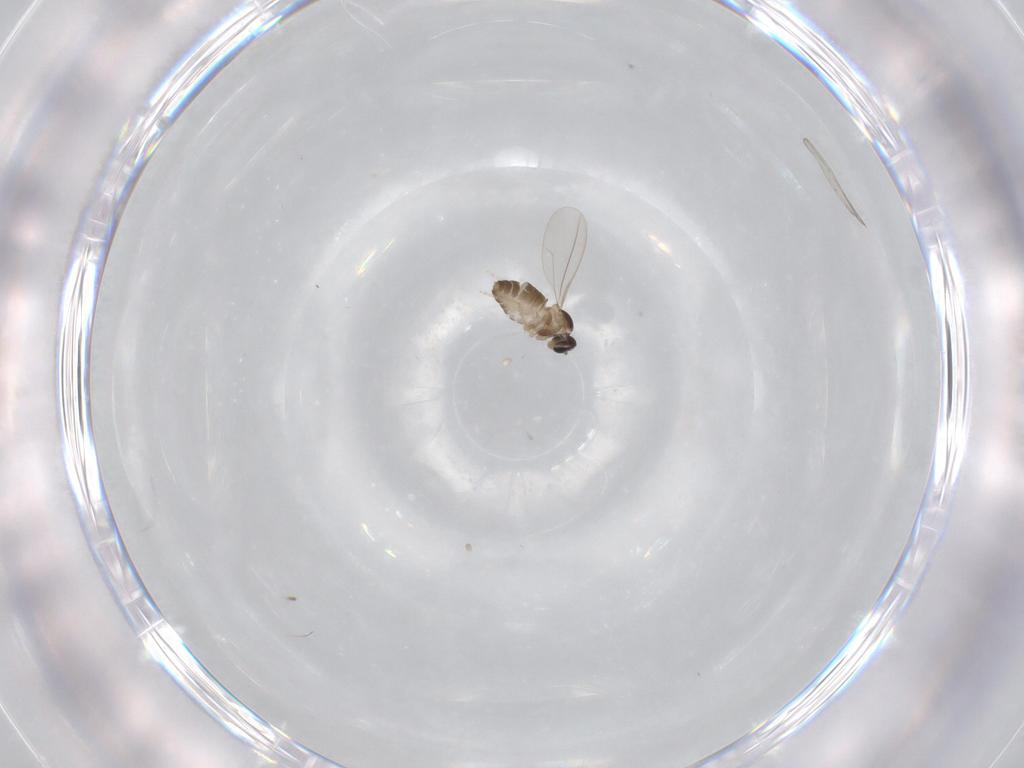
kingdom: Animalia
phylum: Arthropoda
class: Insecta
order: Diptera
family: Cecidomyiidae
